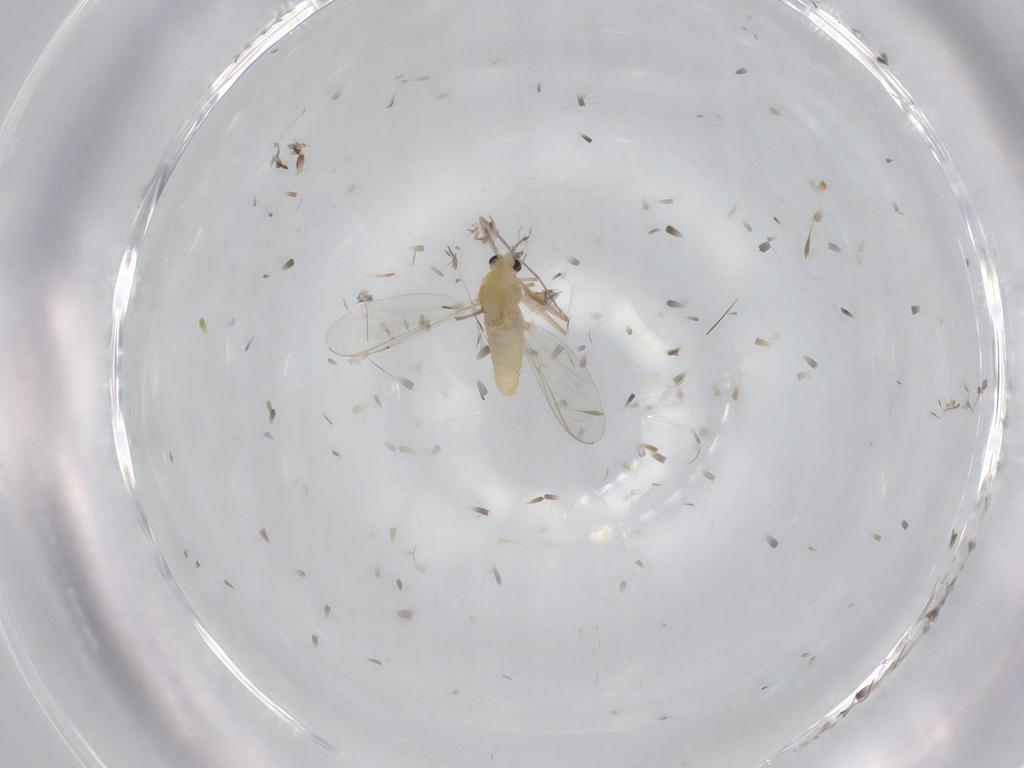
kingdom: Animalia
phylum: Arthropoda
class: Insecta
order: Diptera
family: Chironomidae
